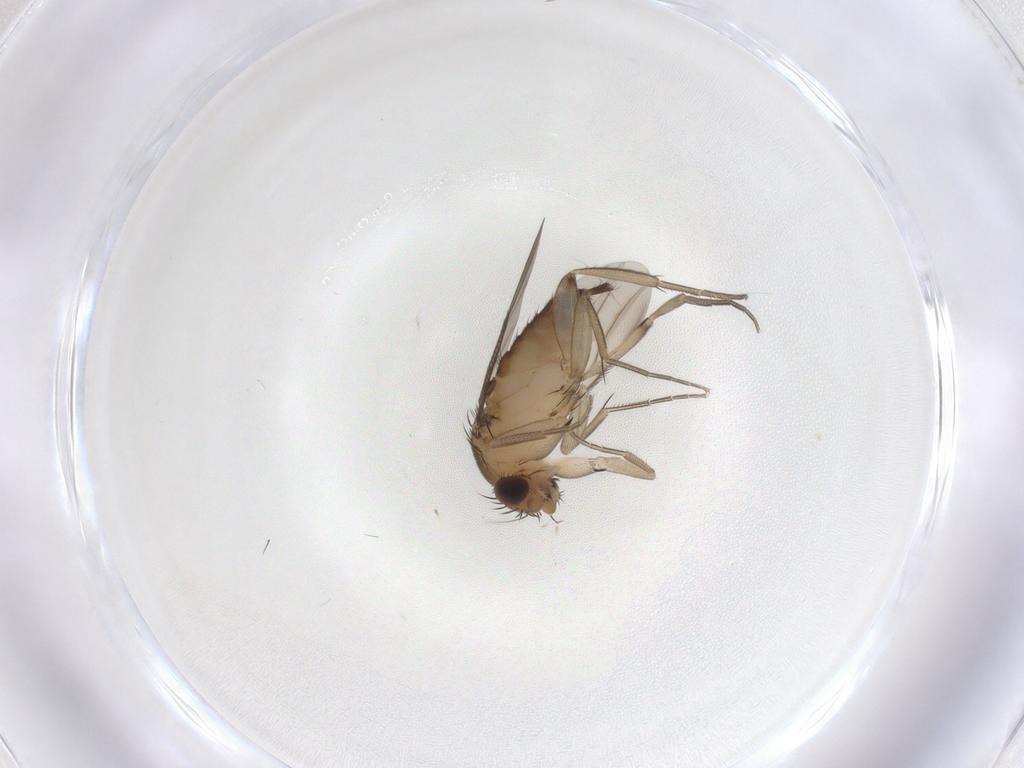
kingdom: Animalia
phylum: Arthropoda
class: Insecta
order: Diptera
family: Phoridae
